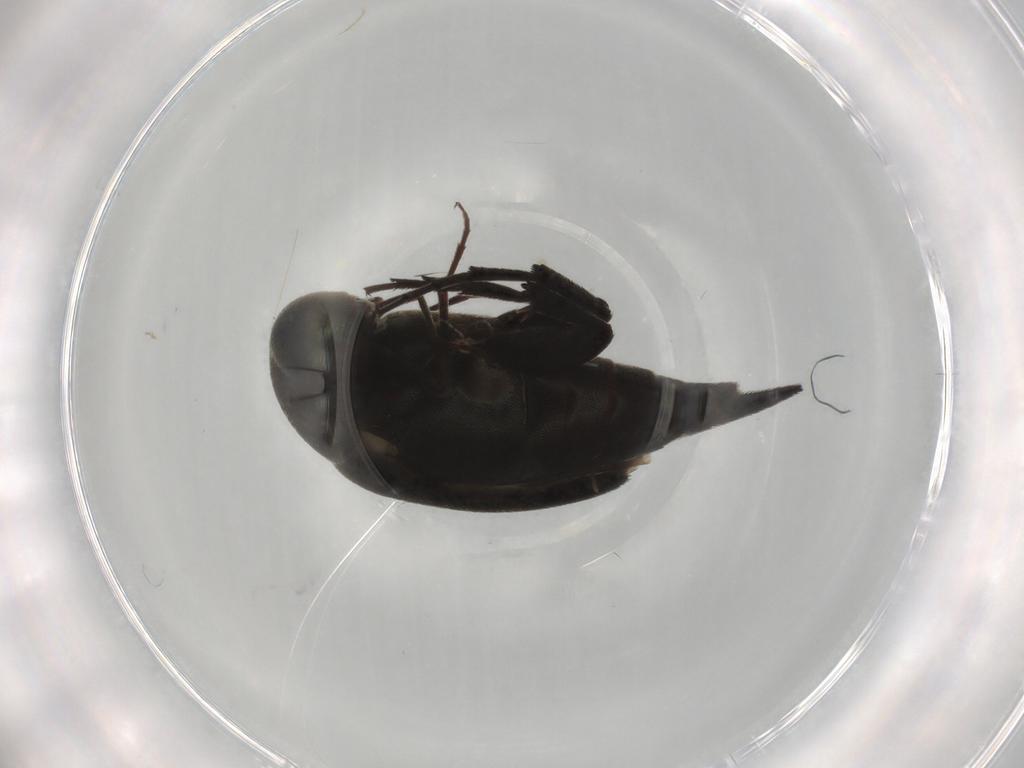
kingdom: Animalia
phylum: Arthropoda
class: Insecta
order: Coleoptera
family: Mordellidae
